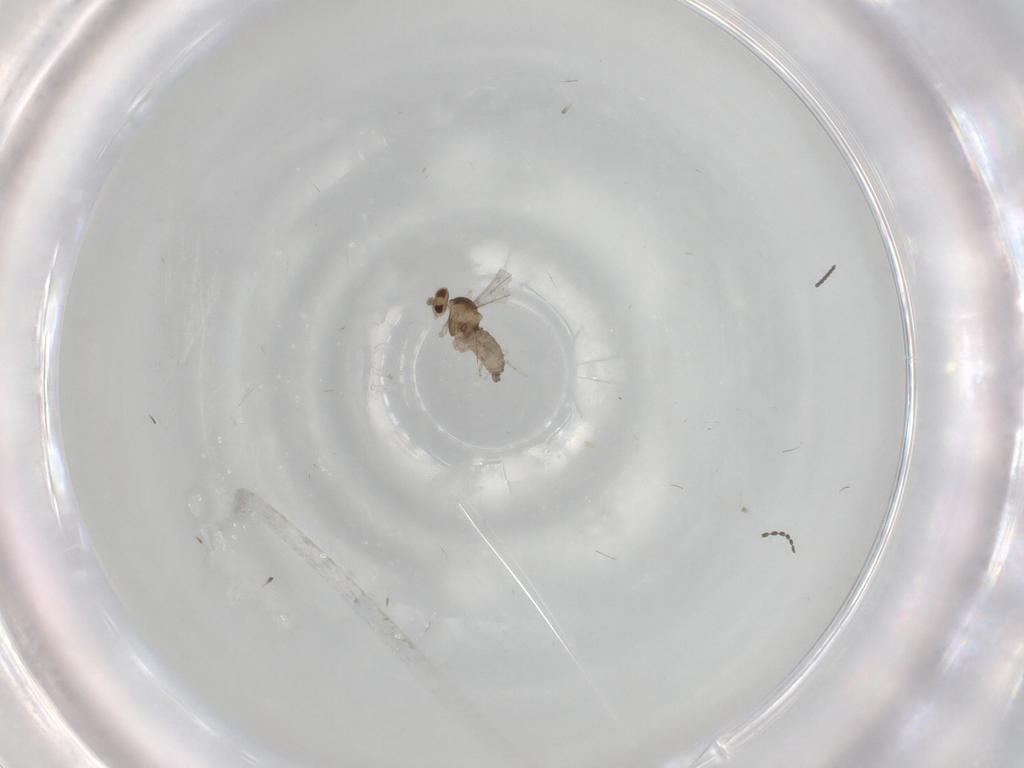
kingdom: Animalia
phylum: Arthropoda
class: Insecta
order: Diptera
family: Cecidomyiidae
